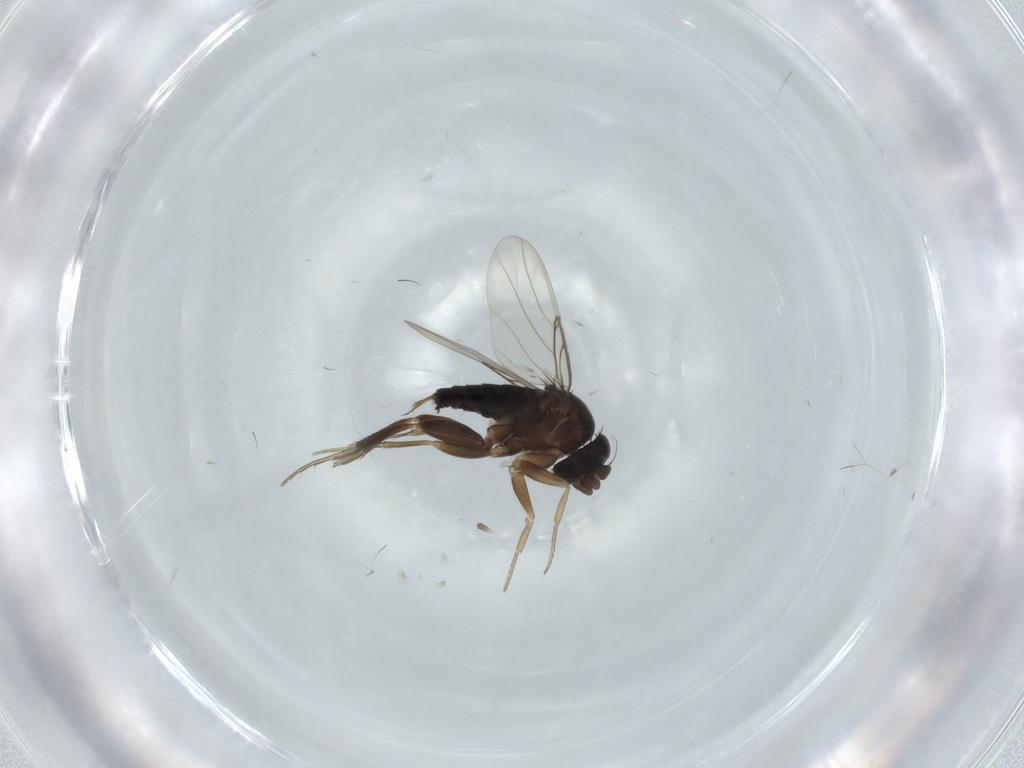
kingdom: Animalia
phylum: Arthropoda
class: Insecta
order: Diptera
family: Phoridae
